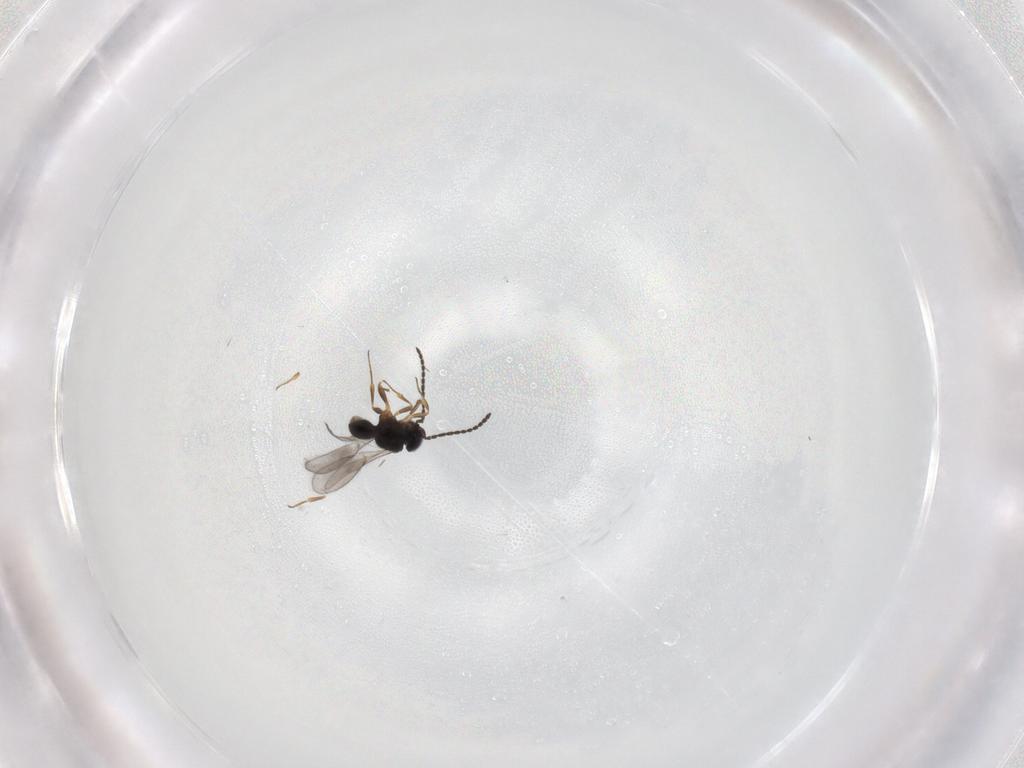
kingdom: Animalia
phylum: Arthropoda
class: Insecta
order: Hymenoptera
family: Scelionidae
